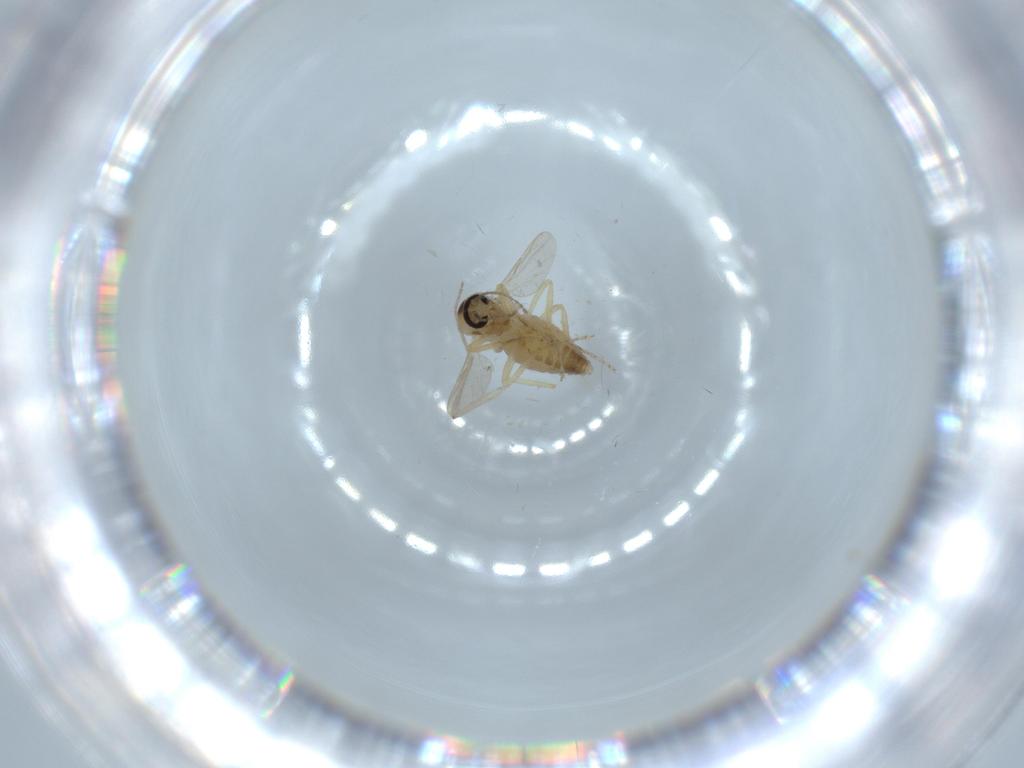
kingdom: Animalia
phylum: Arthropoda
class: Insecta
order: Diptera
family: Ceratopogonidae
